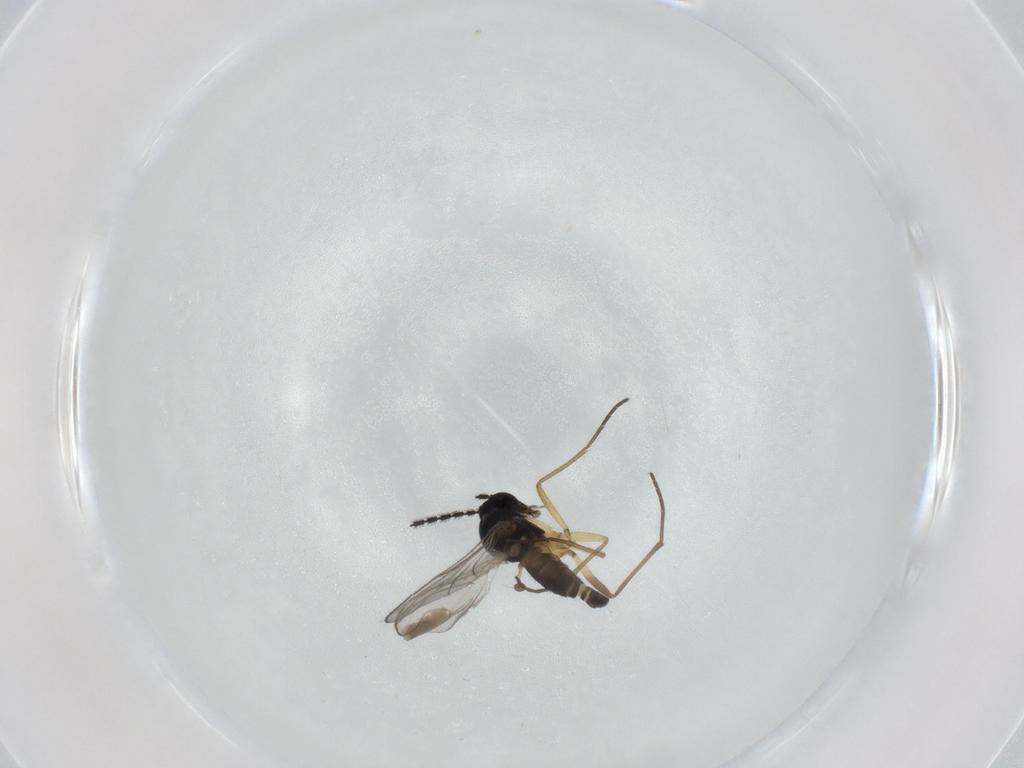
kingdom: Animalia
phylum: Arthropoda
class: Insecta
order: Diptera
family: Sciaridae
